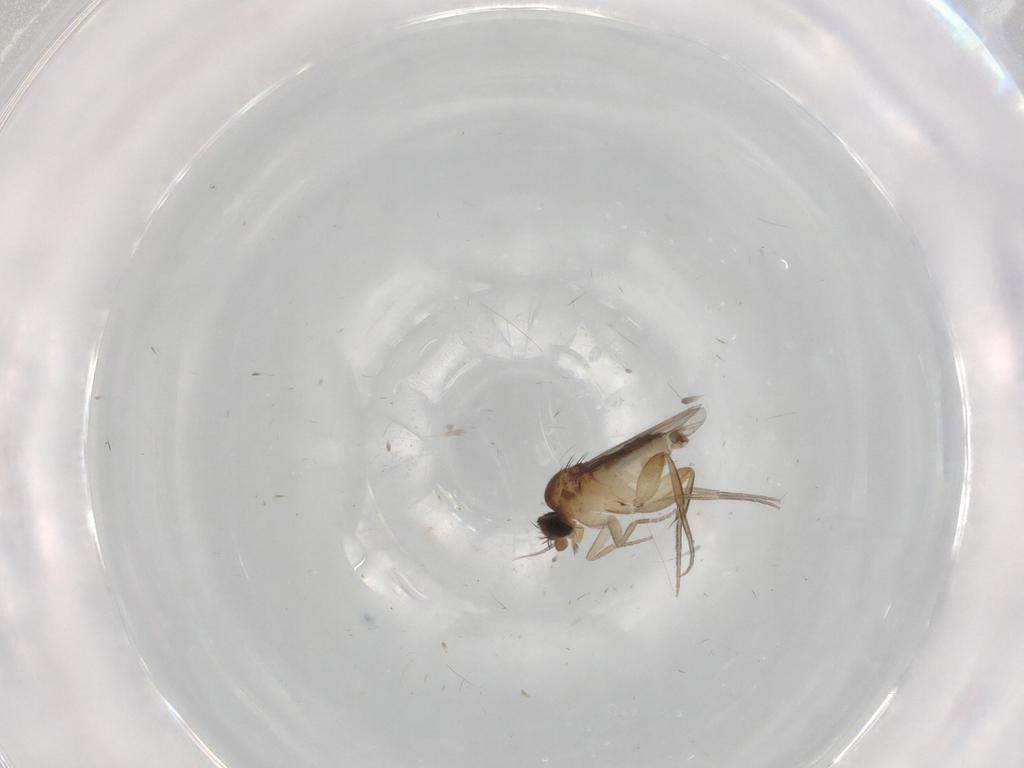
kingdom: Animalia
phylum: Arthropoda
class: Insecta
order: Diptera
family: Phoridae
